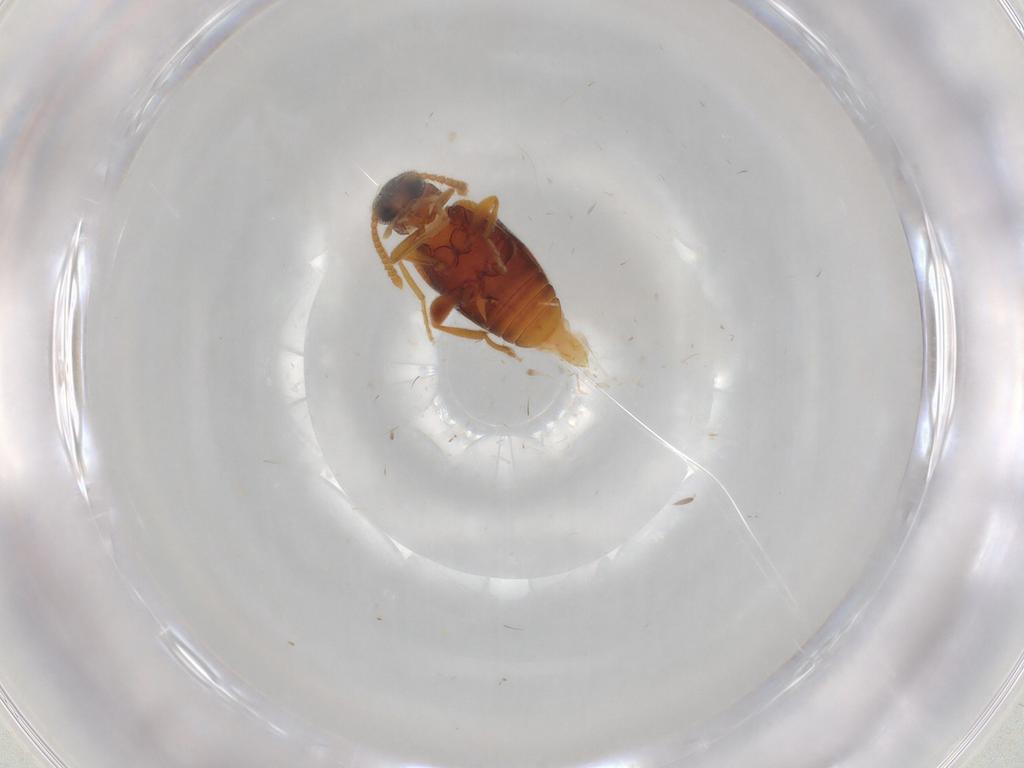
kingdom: Animalia
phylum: Arthropoda
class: Insecta
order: Coleoptera
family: Aderidae
